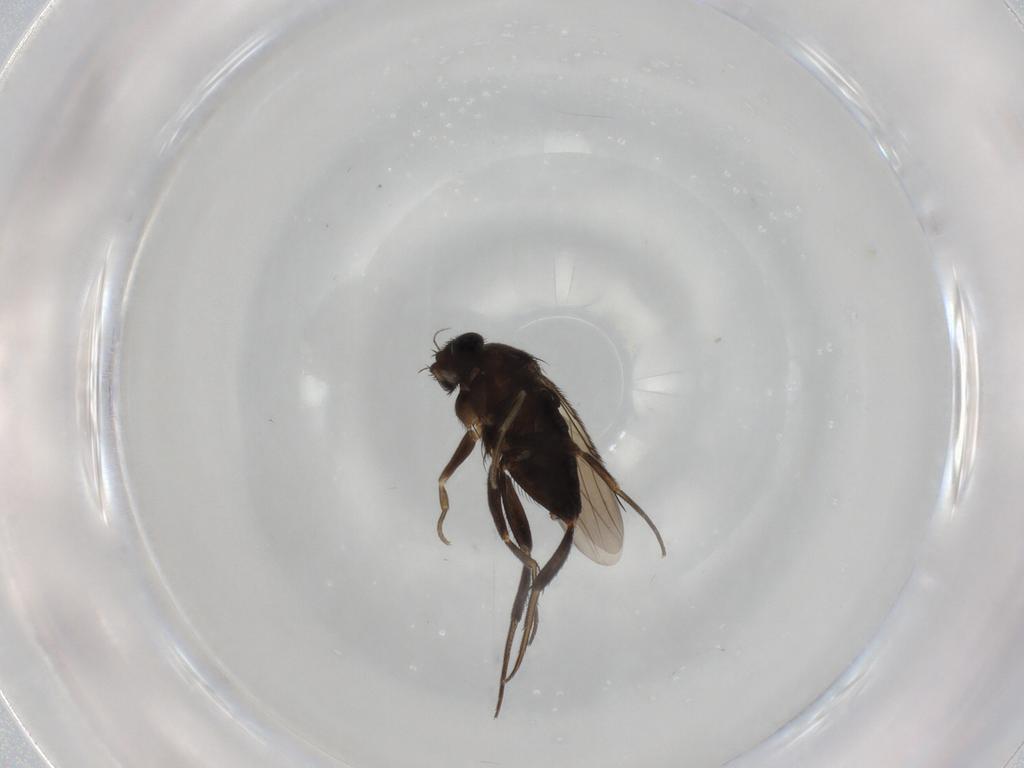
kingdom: Animalia
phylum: Arthropoda
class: Insecta
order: Diptera
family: Phoridae
